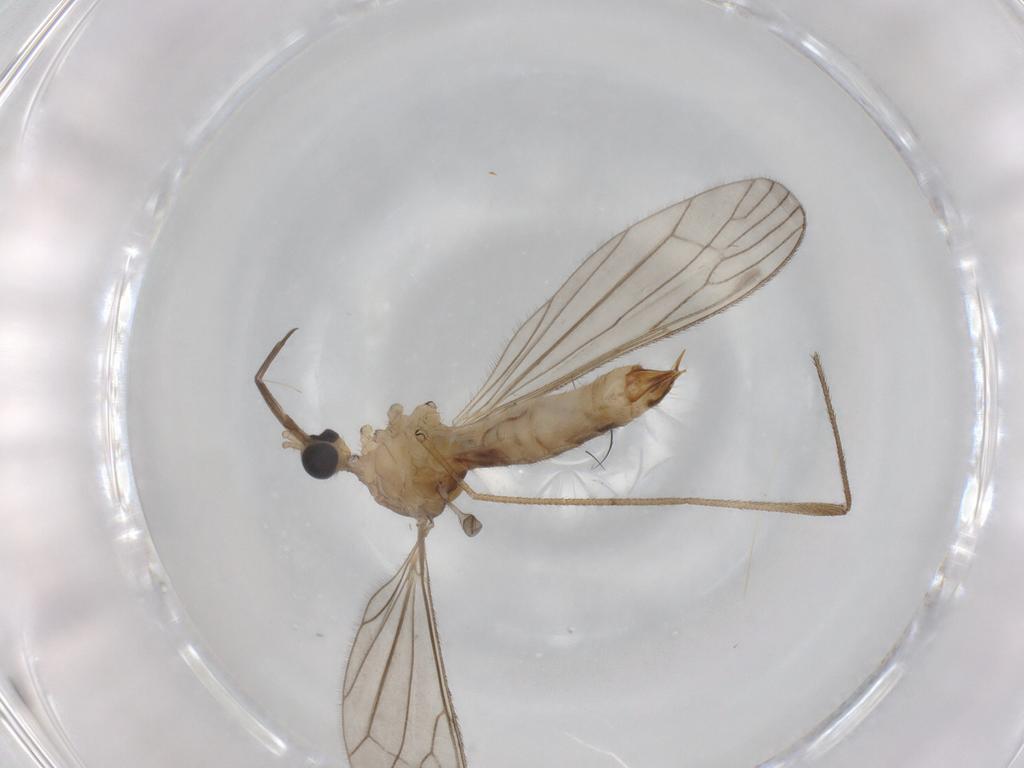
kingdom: Animalia
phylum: Arthropoda
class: Insecta
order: Diptera
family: Limoniidae
